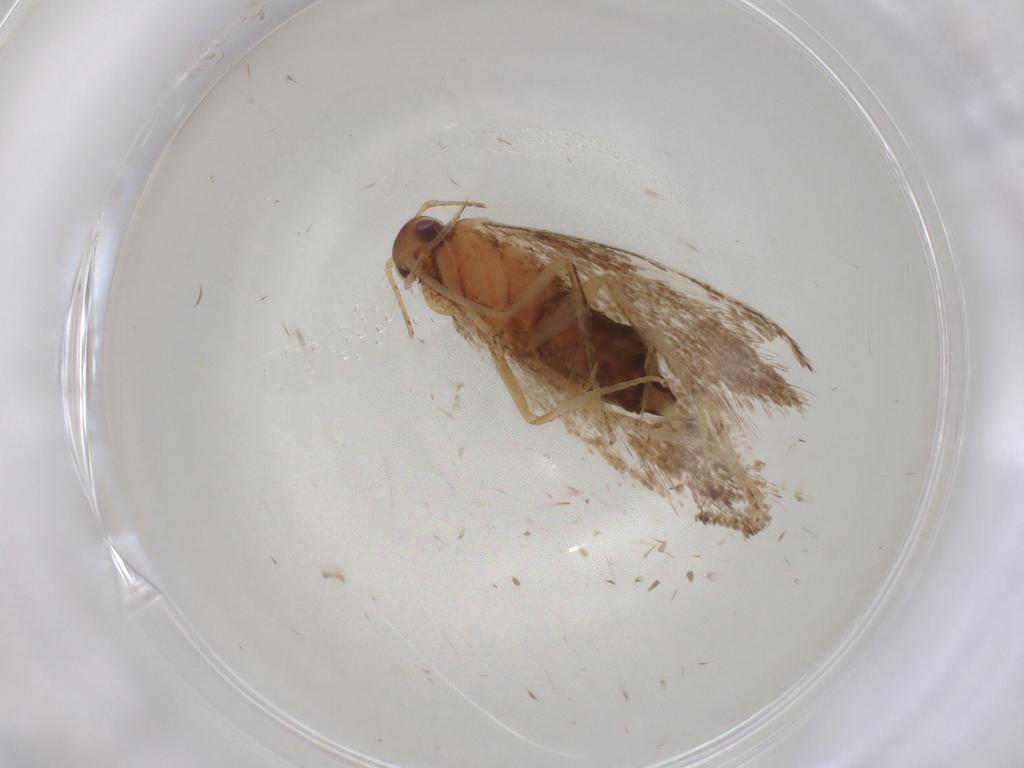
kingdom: Animalia
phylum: Arthropoda
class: Insecta
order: Lepidoptera
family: Oecophoridae
